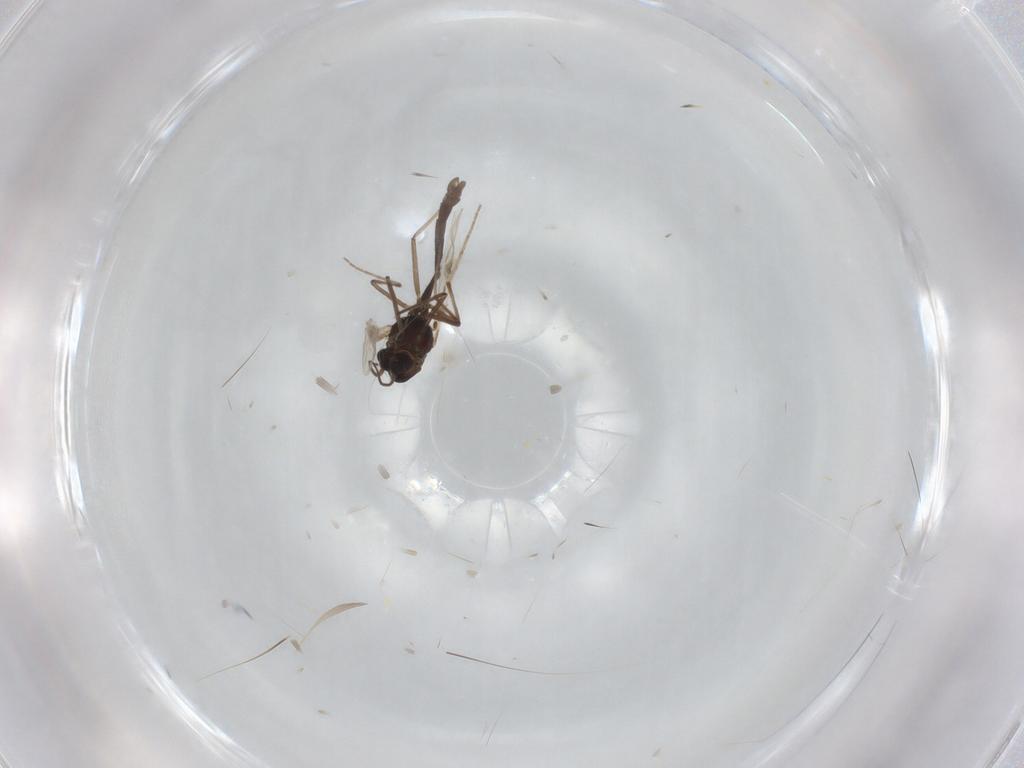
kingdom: Animalia
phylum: Arthropoda
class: Insecta
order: Diptera
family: Chironomidae
